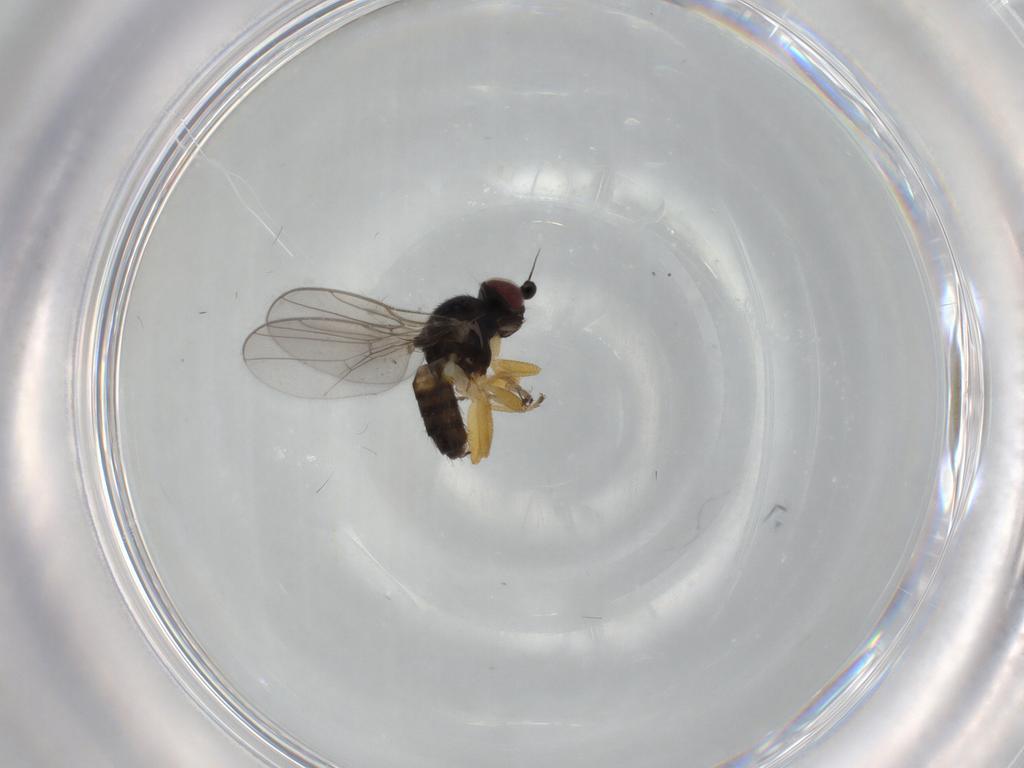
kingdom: Animalia
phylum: Arthropoda
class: Insecta
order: Diptera
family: Chloropidae
